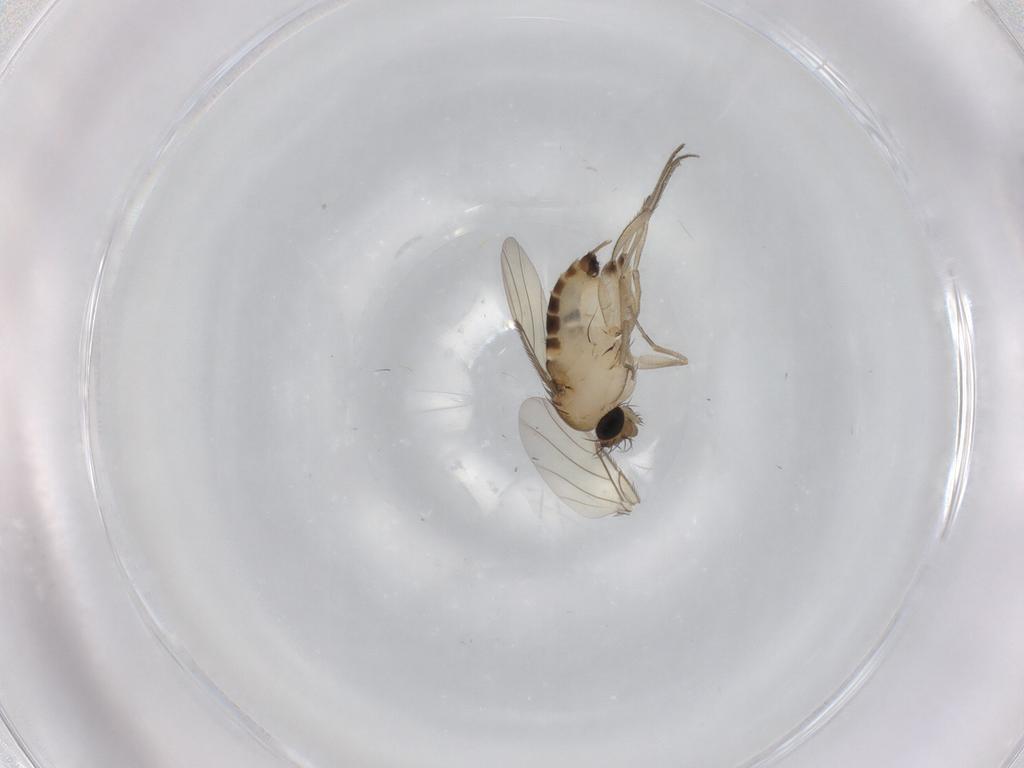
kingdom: Animalia
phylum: Arthropoda
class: Insecta
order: Diptera
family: Phoridae
